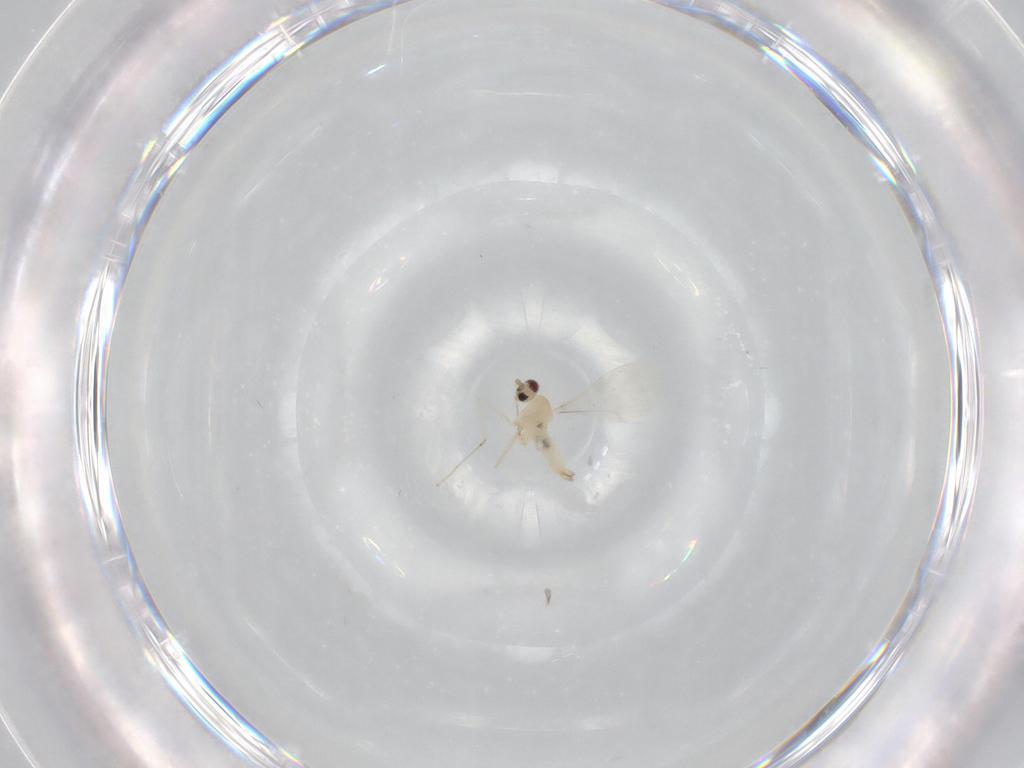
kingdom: Animalia
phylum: Arthropoda
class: Insecta
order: Diptera
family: Cecidomyiidae
